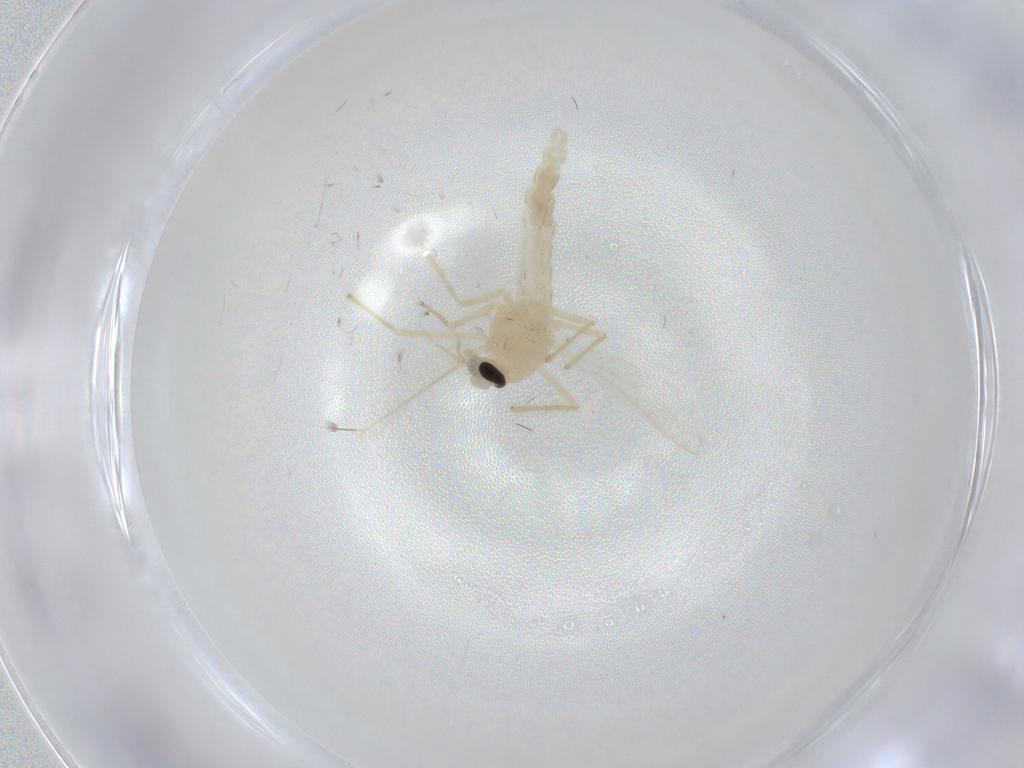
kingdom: Animalia
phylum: Arthropoda
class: Insecta
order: Diptera
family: Chironomidae
